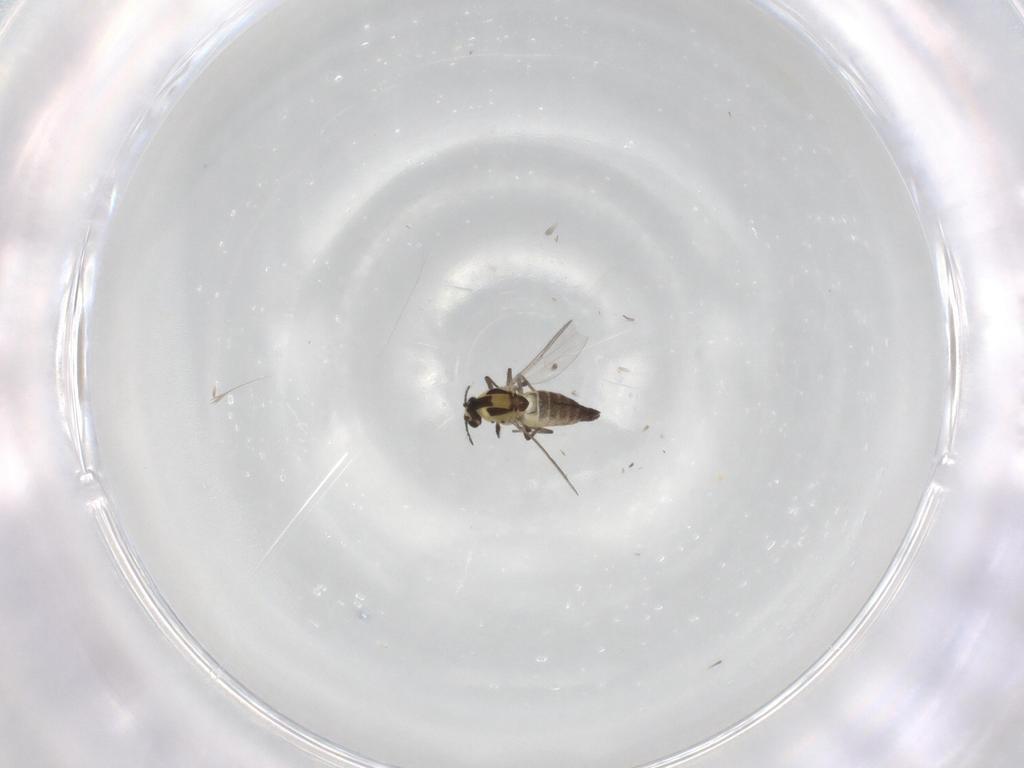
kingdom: Animalia
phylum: Arthropoda
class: Insecta
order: Diptera
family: Chironomidae
